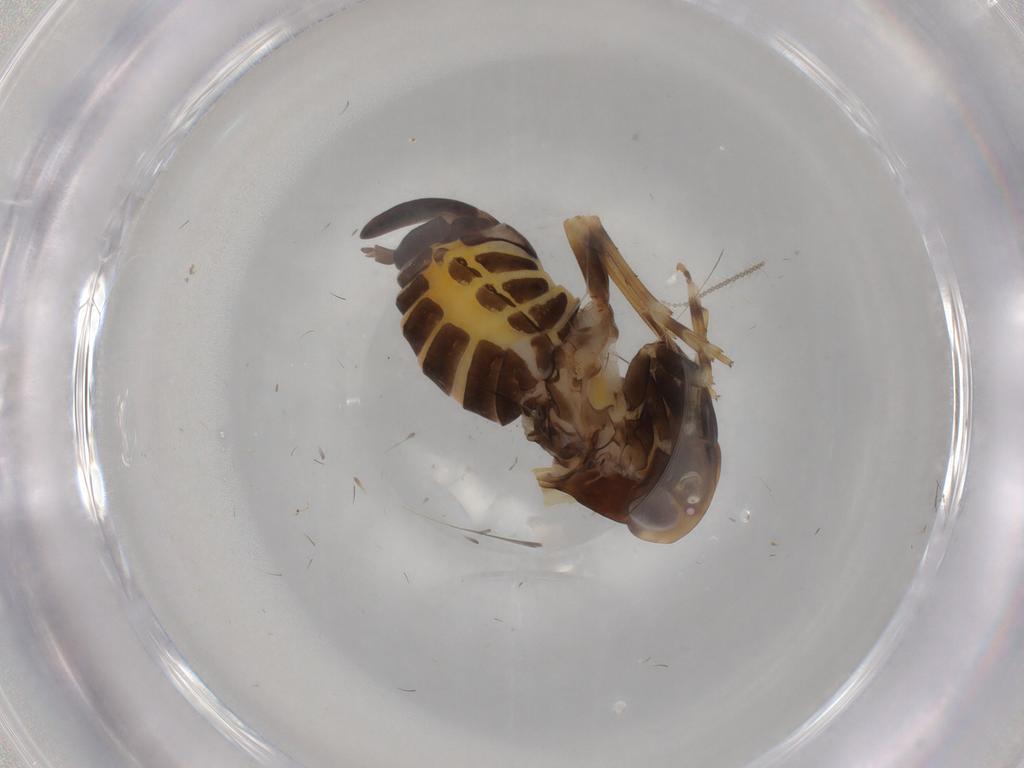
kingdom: Animalia
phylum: Arthropoda
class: Insecta
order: Hemiptera
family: Cixiidae
